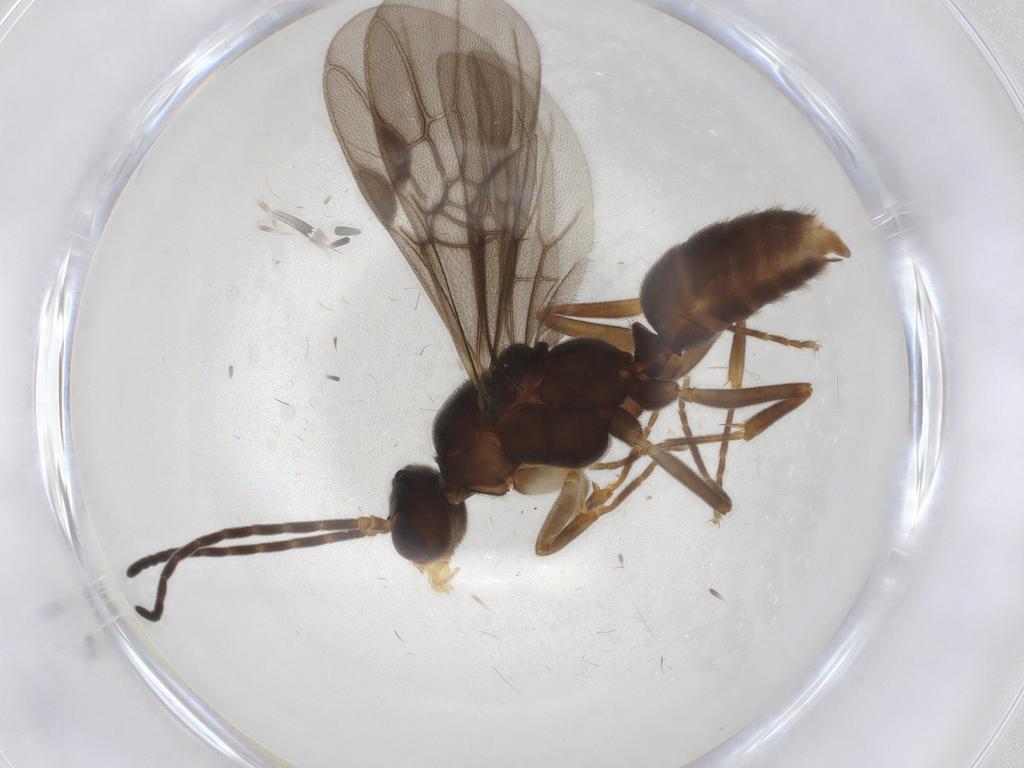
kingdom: Animalia
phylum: Arthropoda
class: Insecta
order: Hymenoptera
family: Formicidae
